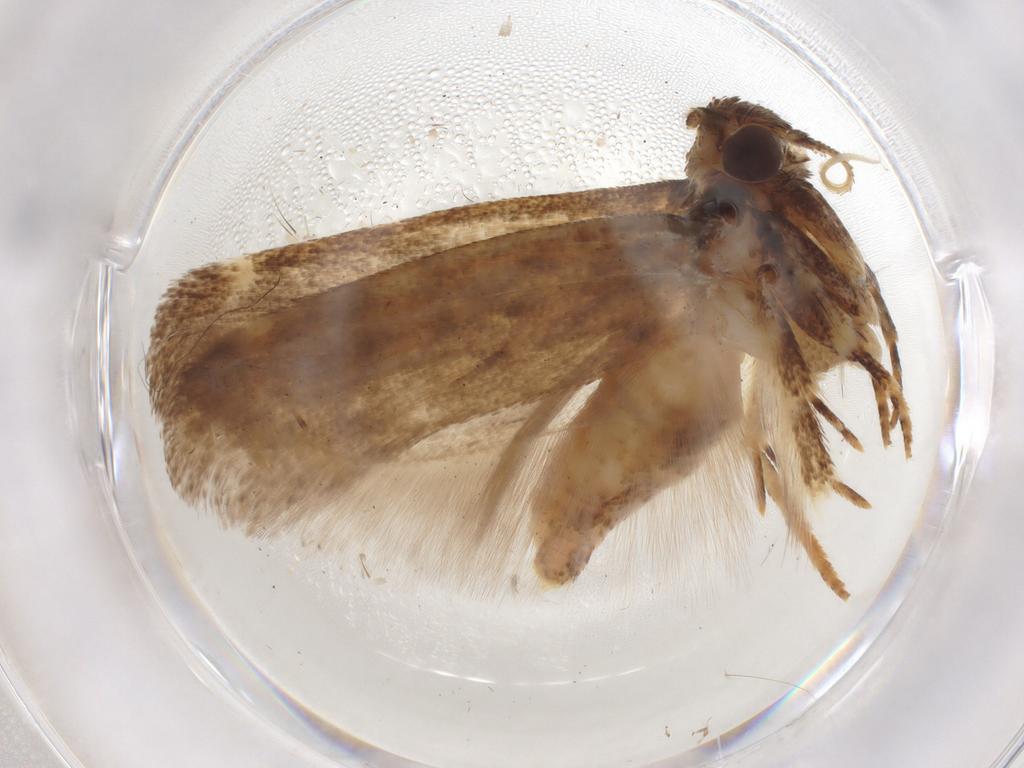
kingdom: Animalia
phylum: Arthropoda
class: Insecta
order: Lepidoptera
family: Gelechiidae
